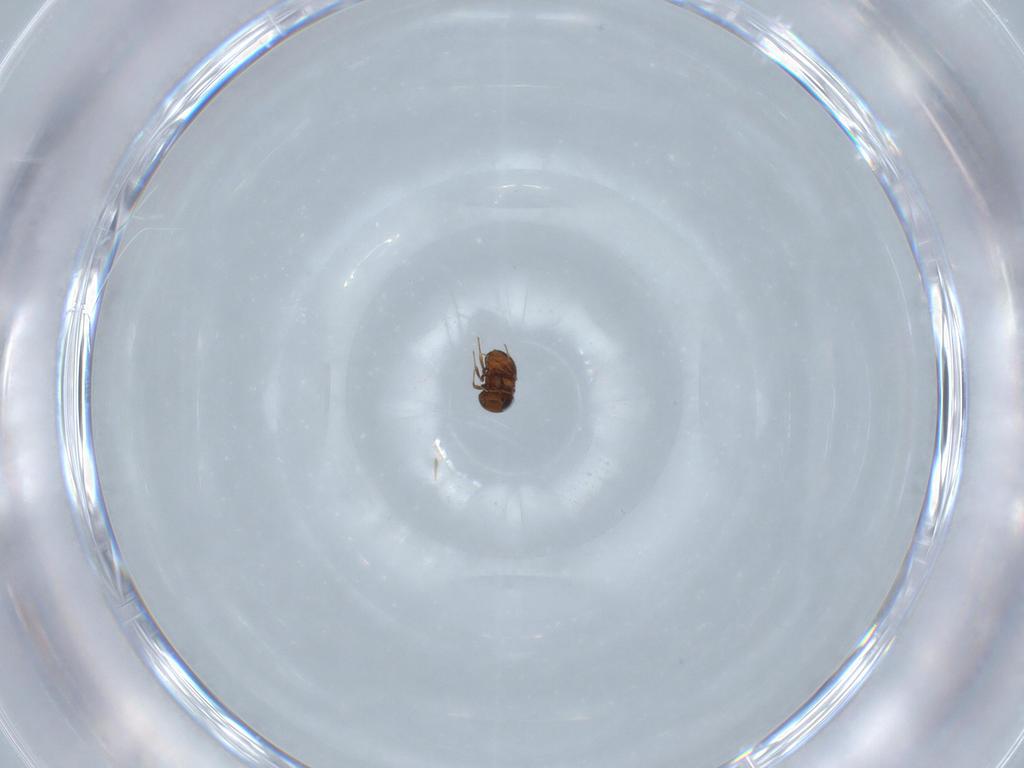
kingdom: Animalia
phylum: Arthropoda
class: Insecta
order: Hymenoptera
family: Scelionidae
